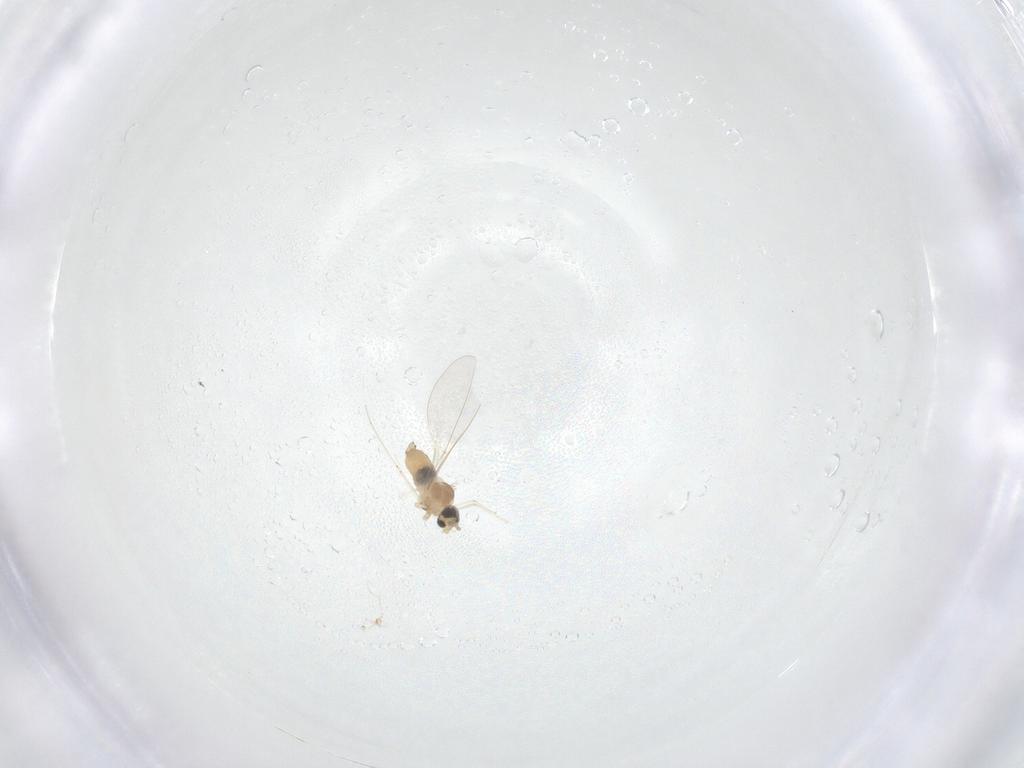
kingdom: Animalia
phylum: Arthropoda
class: Insecta
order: Diptera
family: Cecidomyiidae
